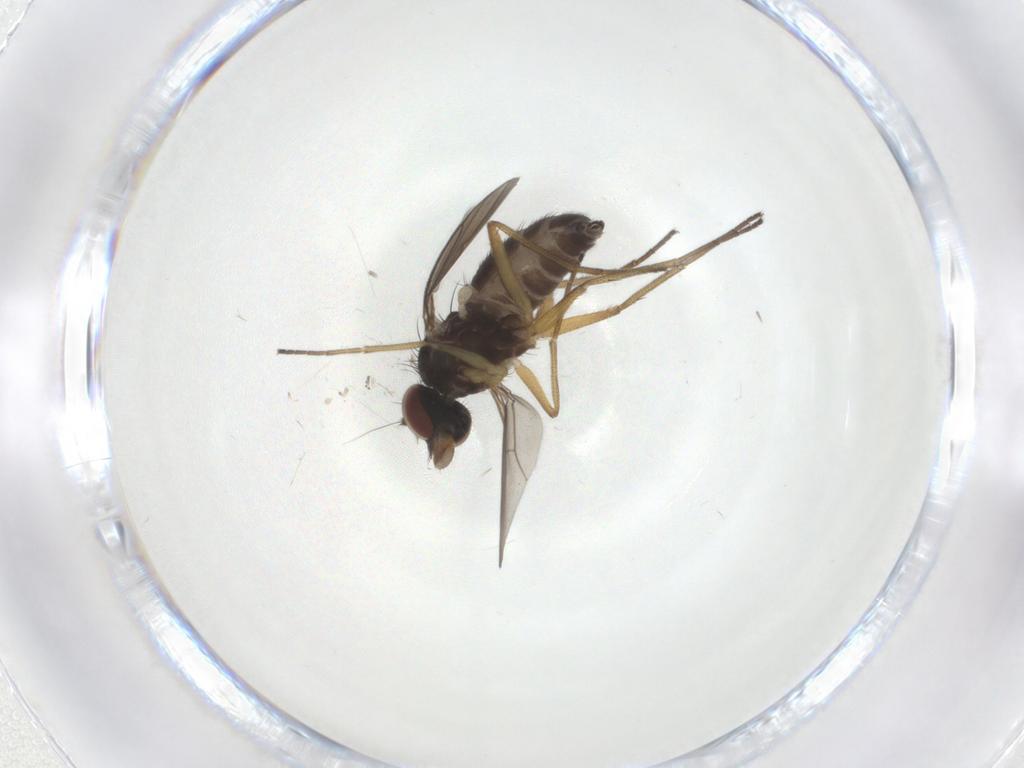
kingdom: Animalia
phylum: Arthropoda
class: Insecta
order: Diptera
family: Dolichopodidae
